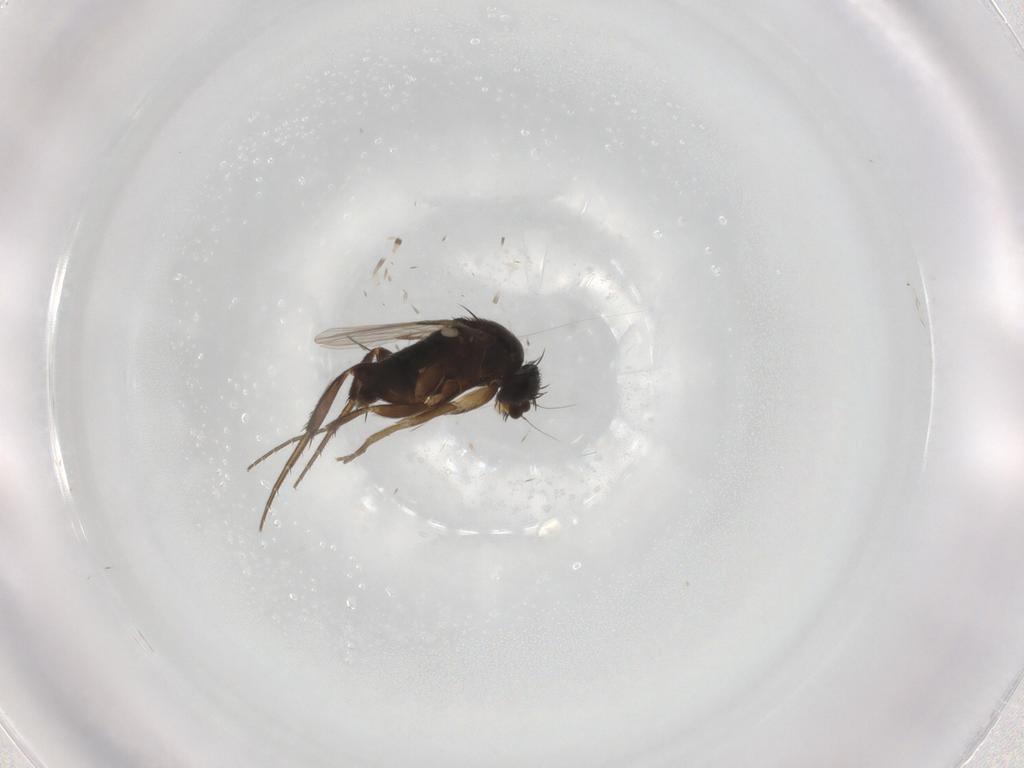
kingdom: Animalia
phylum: Arthropoda
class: Insecta
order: Diptera
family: Phoridae
